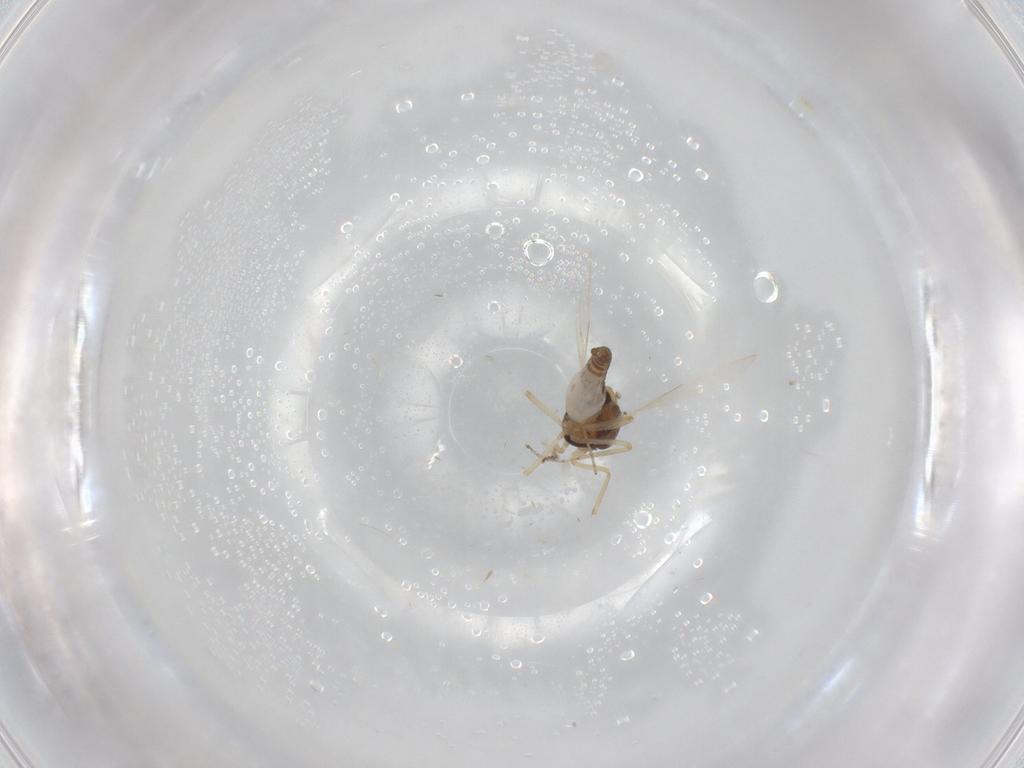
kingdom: Animalia
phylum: Arthropoda
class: Insecta
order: Diptera
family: Ceratopogonidae
